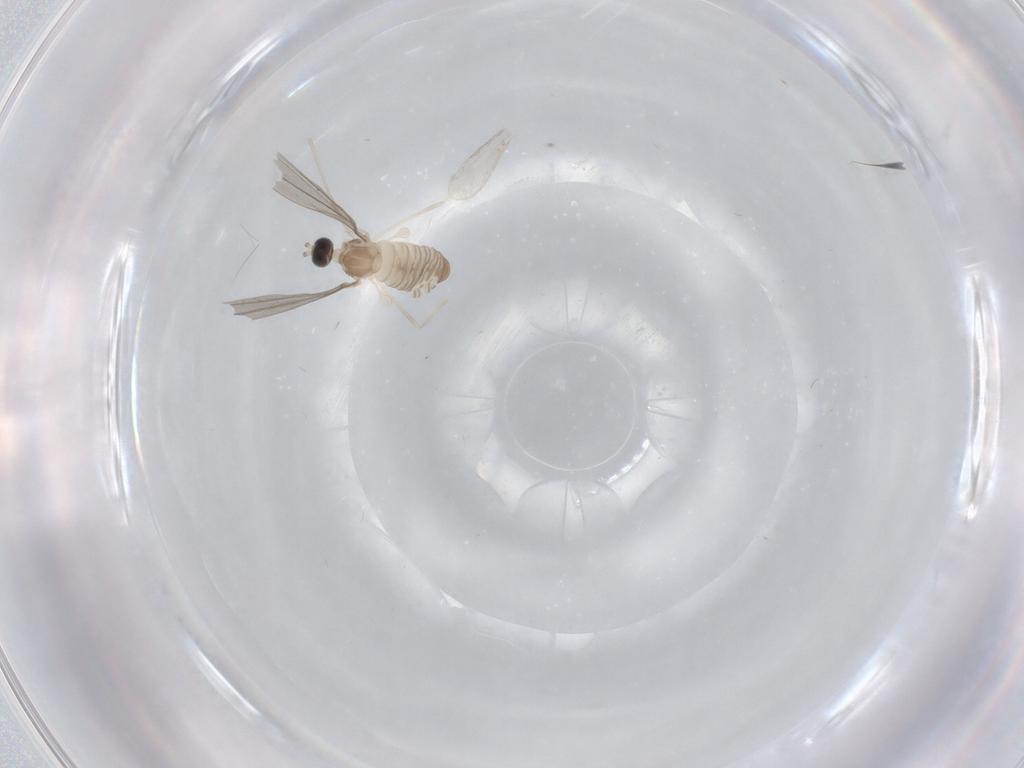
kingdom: Animalia
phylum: Arthropoda
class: Insecta
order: Diptera
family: Cecidomyiidae
